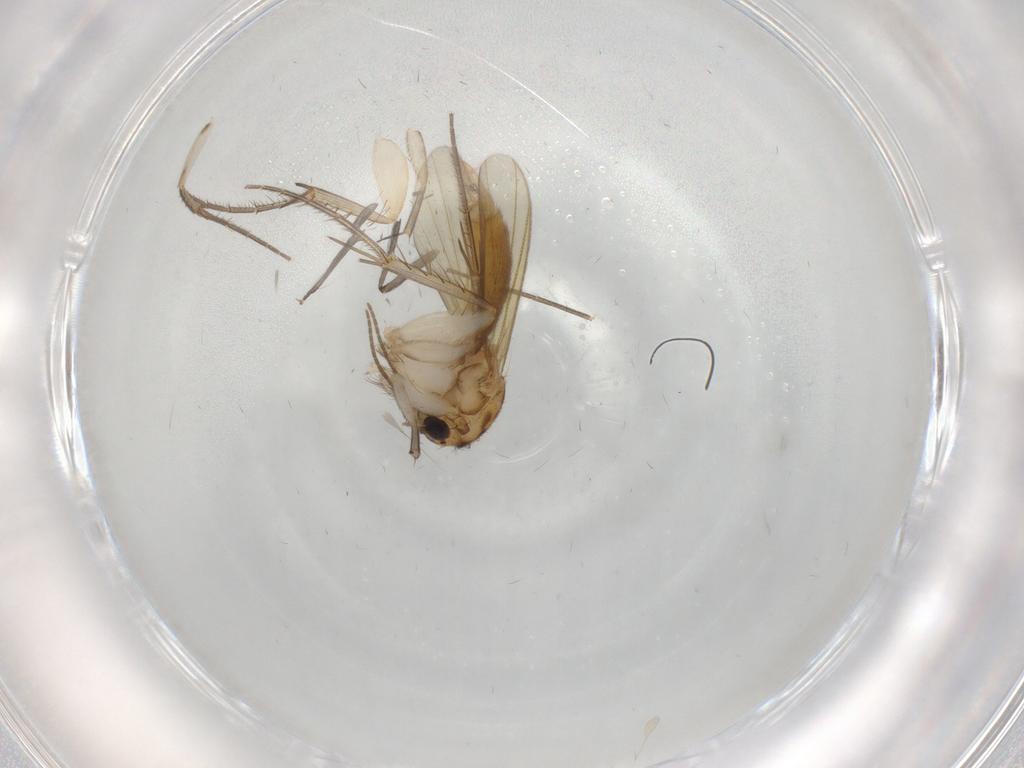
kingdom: Animalia
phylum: Arthropoda
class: Insecta
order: Diptera
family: Mycetophilidae
